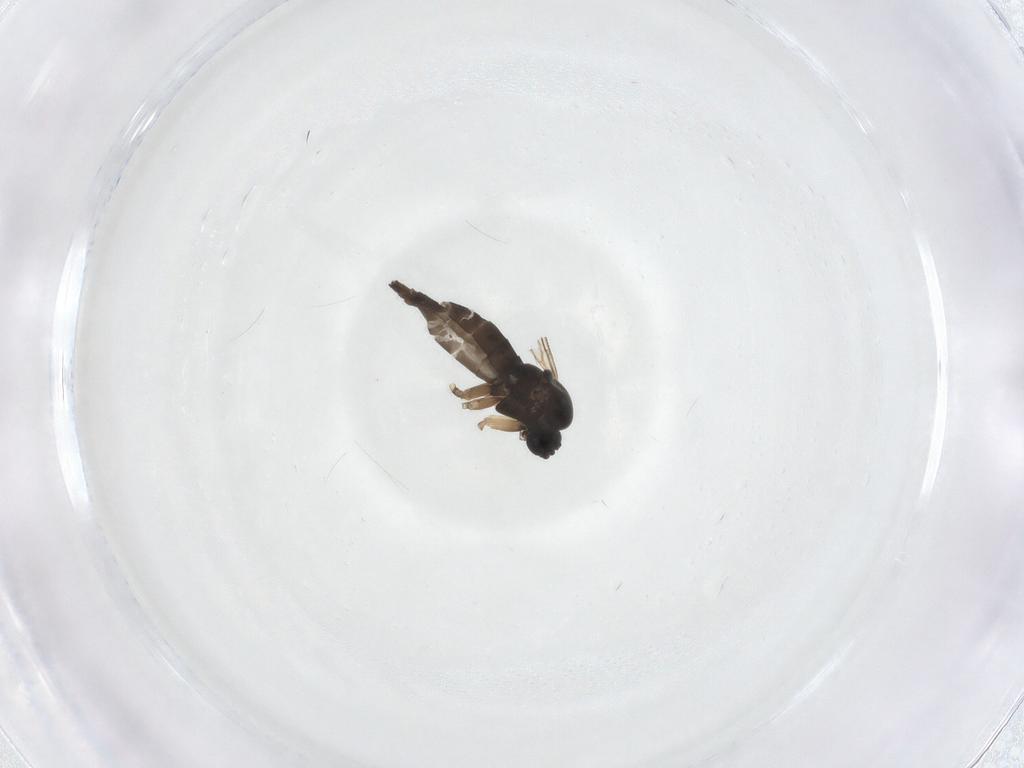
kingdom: Animalia
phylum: Arthropoda
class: Insecta
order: Diptera
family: Sciaridae
